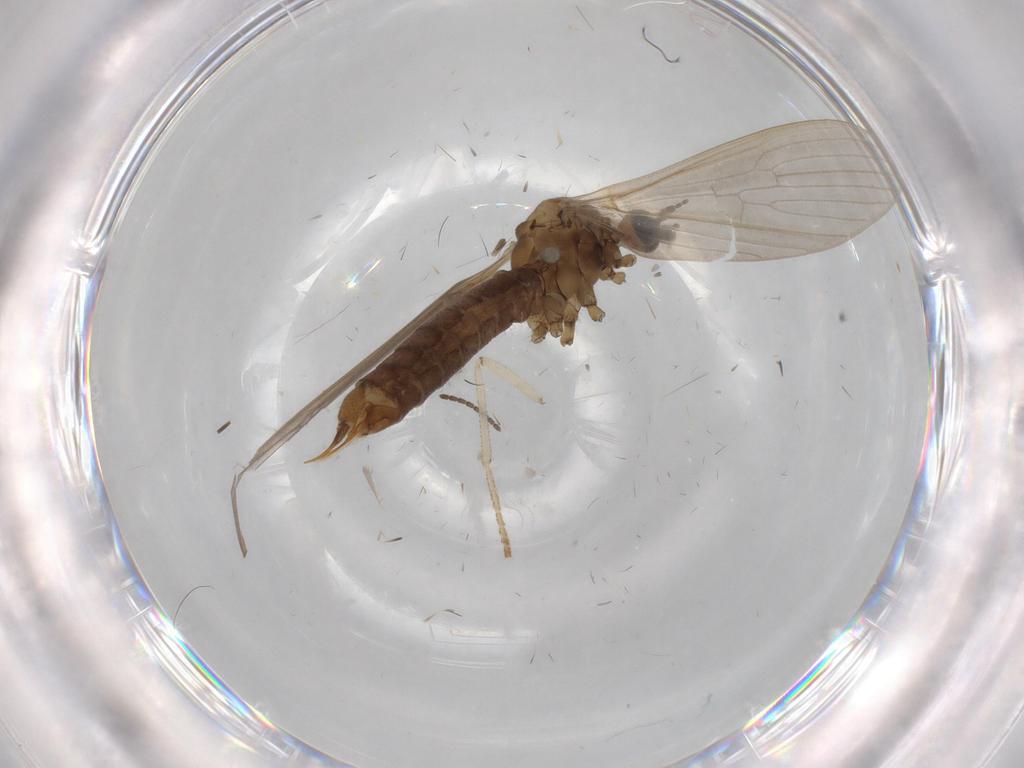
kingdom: Animalia
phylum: Arthropoda
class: Insecta
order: Diptera
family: Limoniidae
